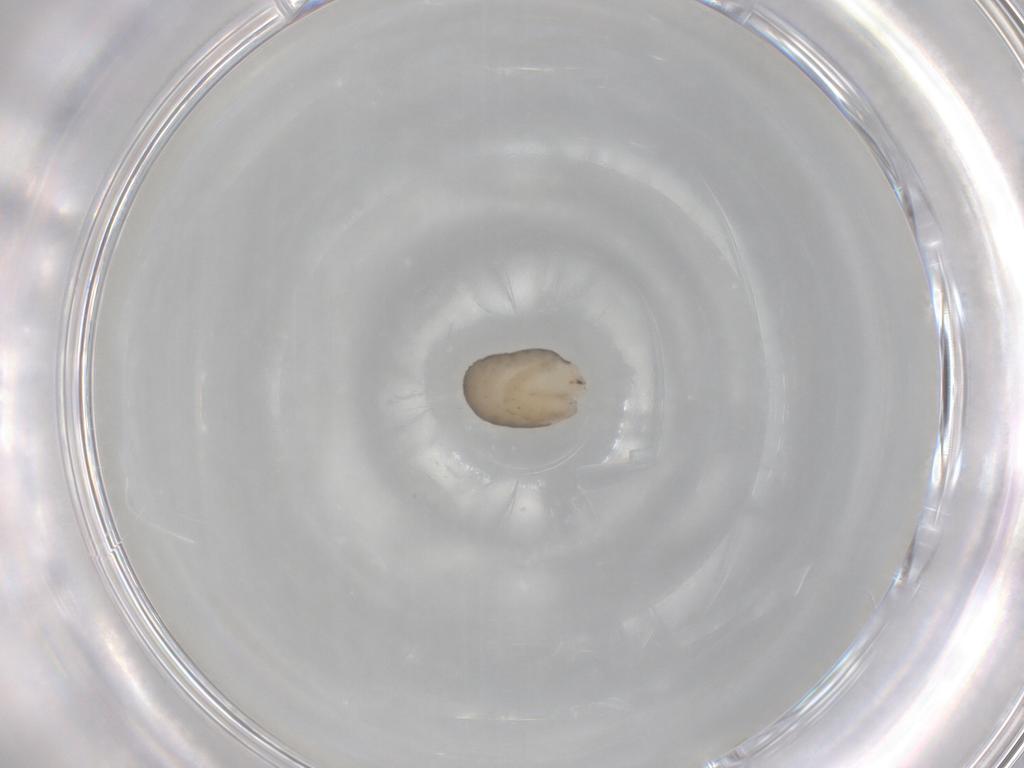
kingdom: Animalia
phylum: Arthropoda
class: Insecta
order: Hymenoptera
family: Dryinidae
